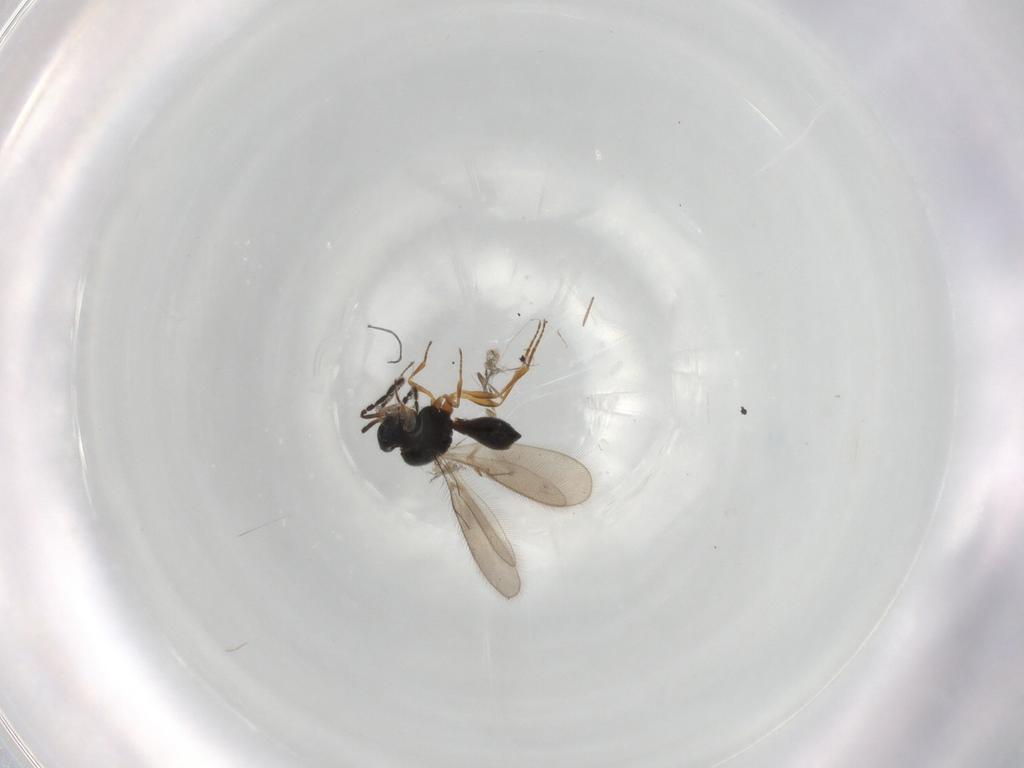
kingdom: Animalia
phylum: Arthropoda
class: Insecta
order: Hymenoptera
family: Scelionidae
